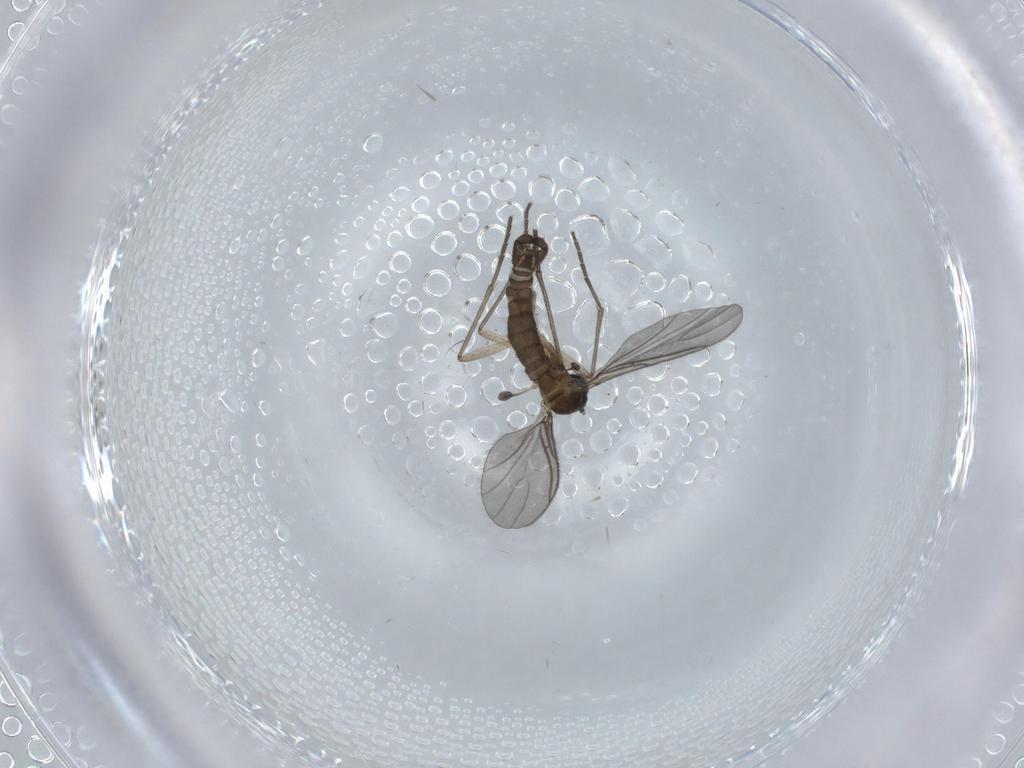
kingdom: Animalia
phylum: Arthropoda
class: Insecta
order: Diptera
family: Sciaridae
